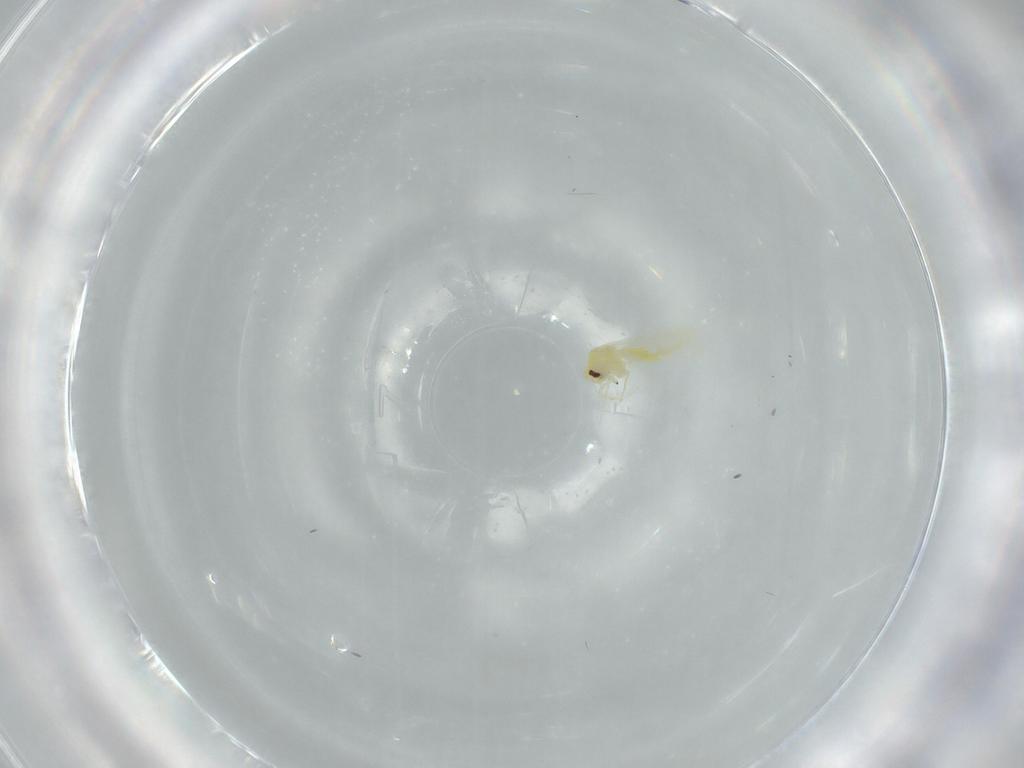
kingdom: Animalia
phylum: Arthropoda
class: Insecta
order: Hemiptera
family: Aleyrodidae
